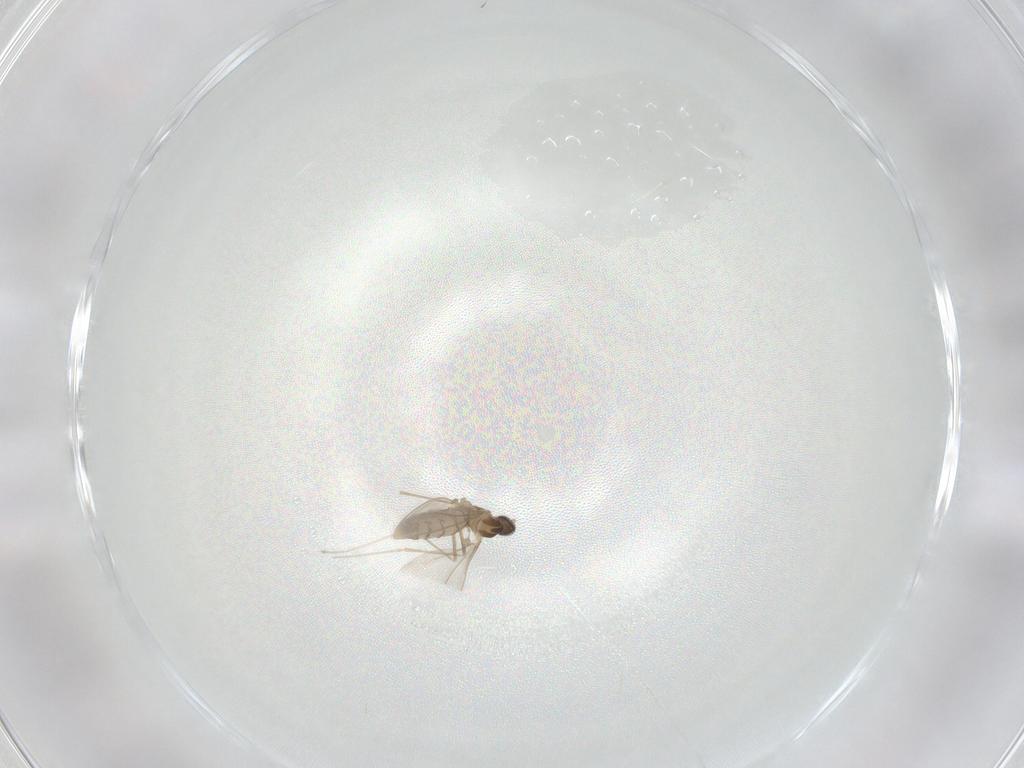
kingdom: Animalia
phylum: Arthropoda
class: Insecta
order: Diptera
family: Cecidomyiidae
